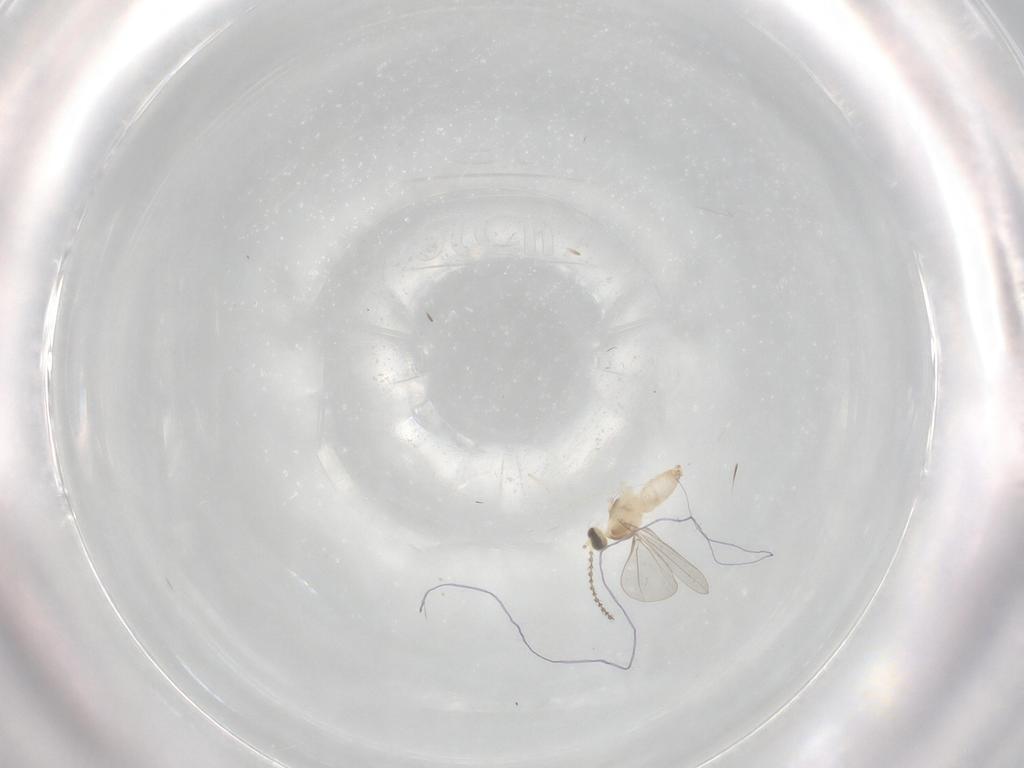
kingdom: Animalia
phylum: Arthropoda
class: Insecta
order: Diptera
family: Cecidomyiidae
